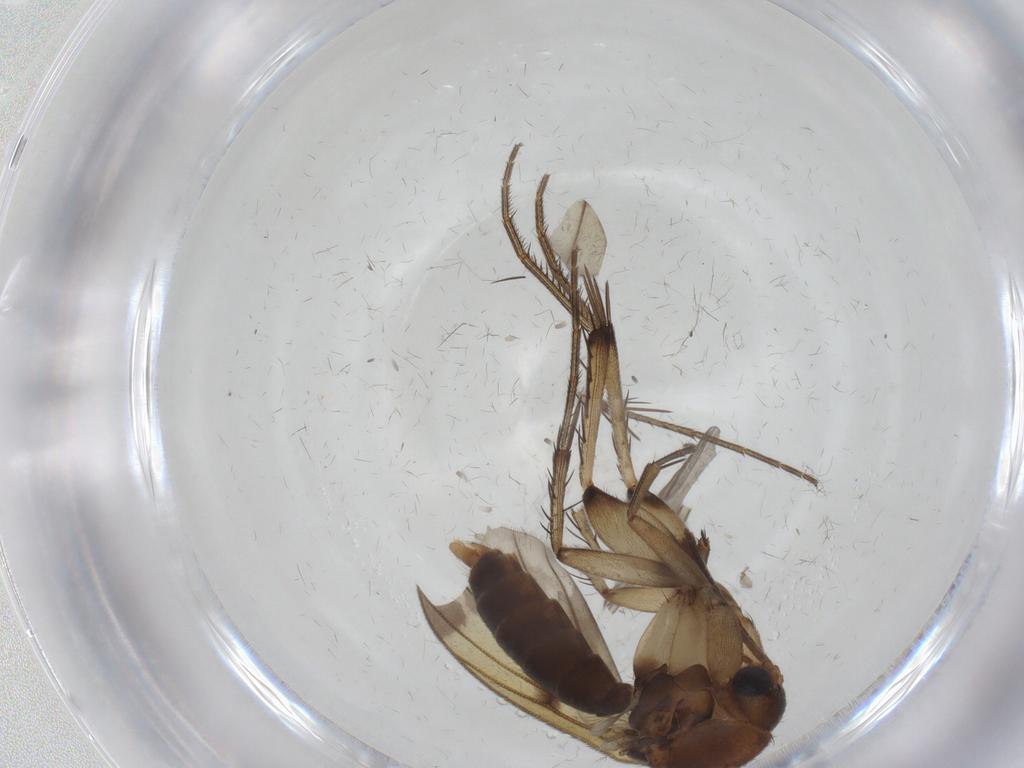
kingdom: Animalia
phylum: Arthropoda
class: Insecta
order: Diptera
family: Mycetophilidae
